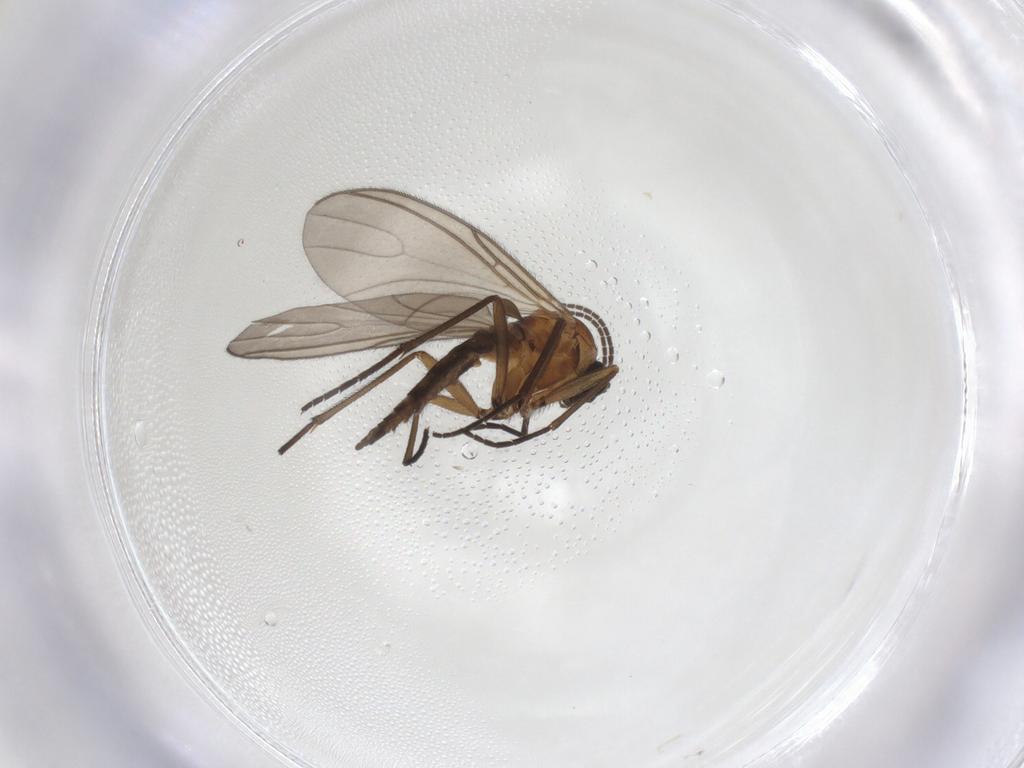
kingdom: Animalia
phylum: Arthropoda
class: Insecta
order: Diptera
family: Sciaridae
